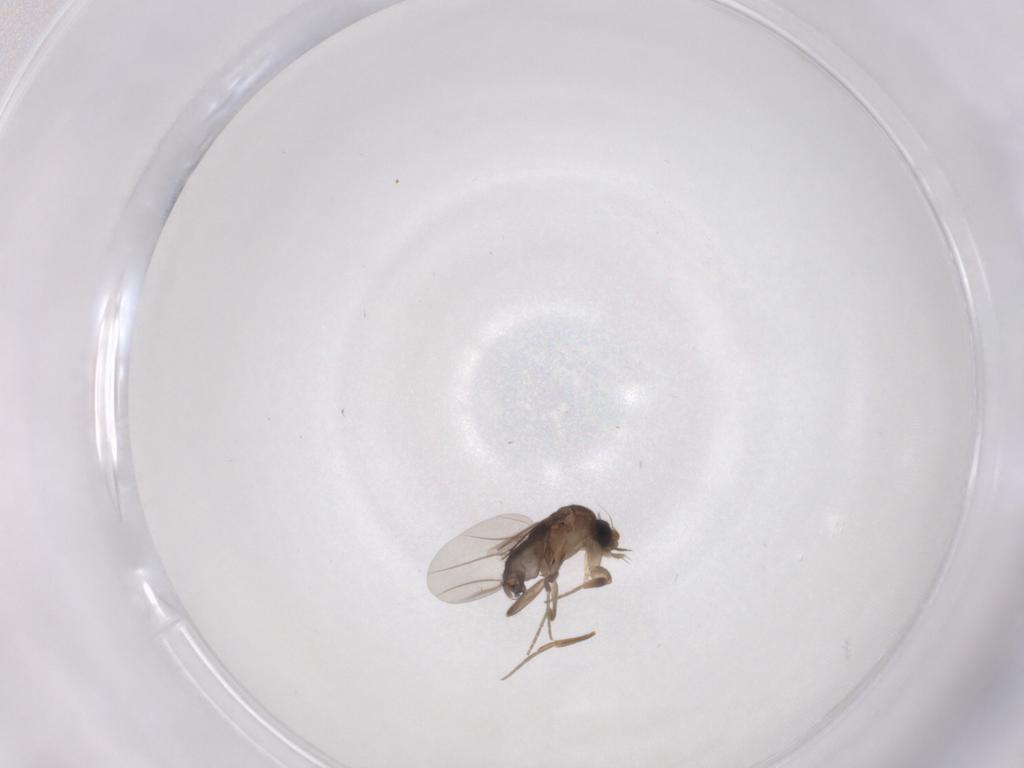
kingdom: Animalia
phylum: Arthropoda
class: Insecta
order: Diptera
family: Phoridae
